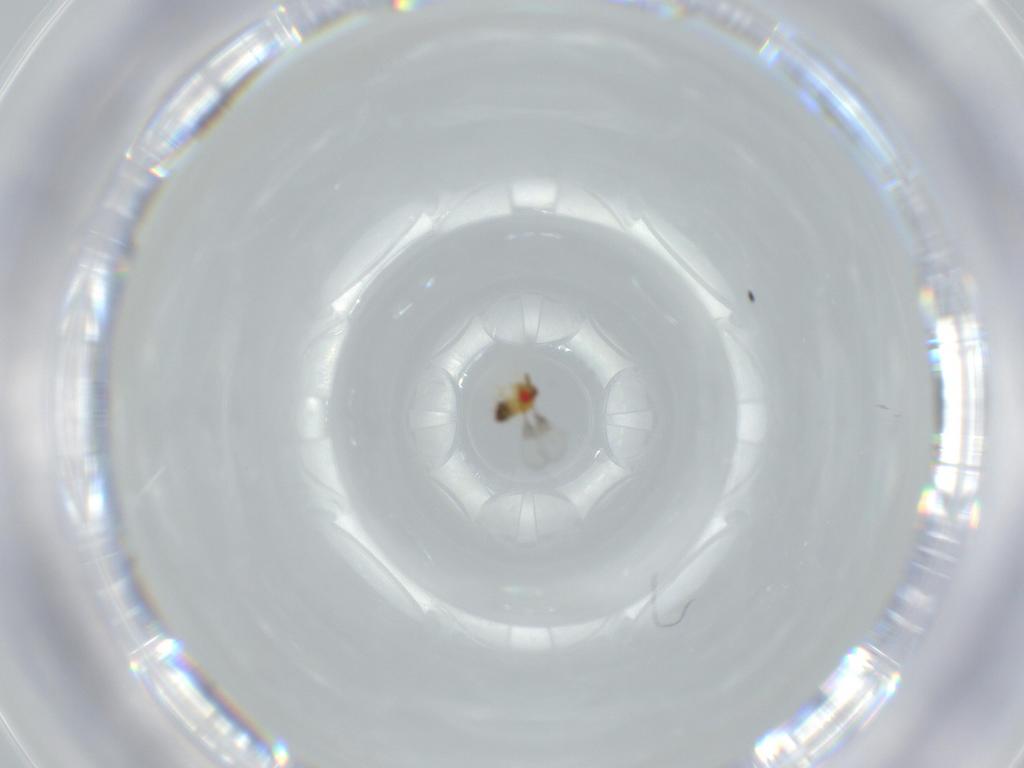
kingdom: Animalia
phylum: Arthropoda
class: Insecta
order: Hymenoptera
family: Trichogrammatidae
